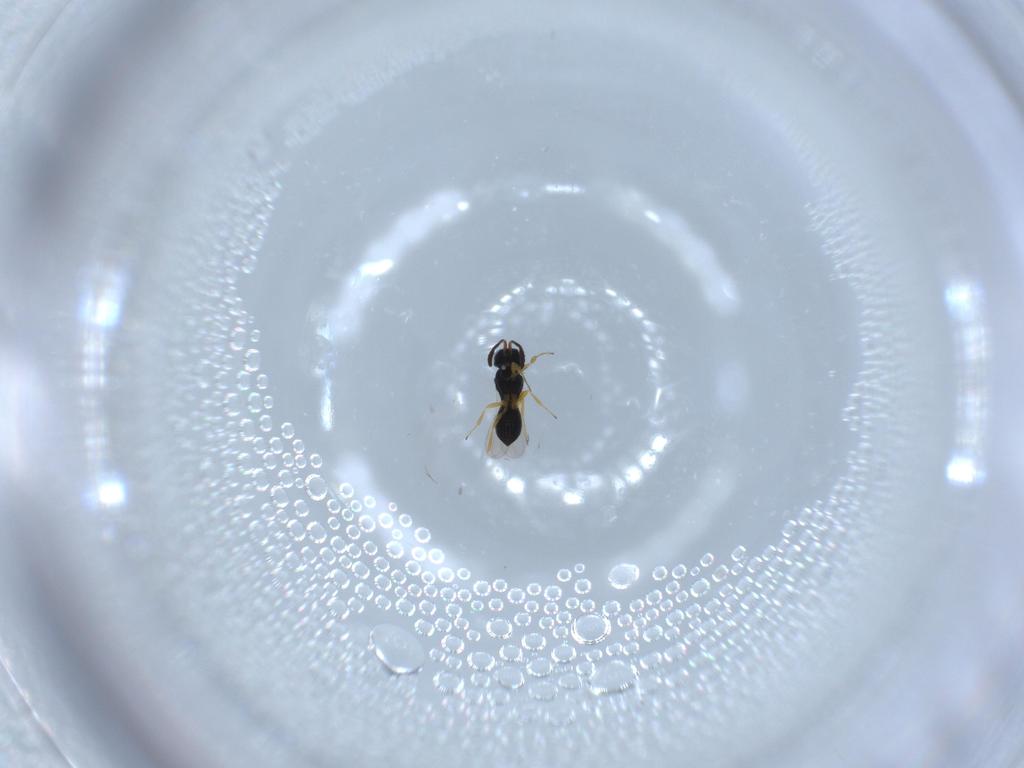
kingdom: Animalia
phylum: Arthropoda
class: Insecta
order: Hymenoptera
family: Scelionidae
